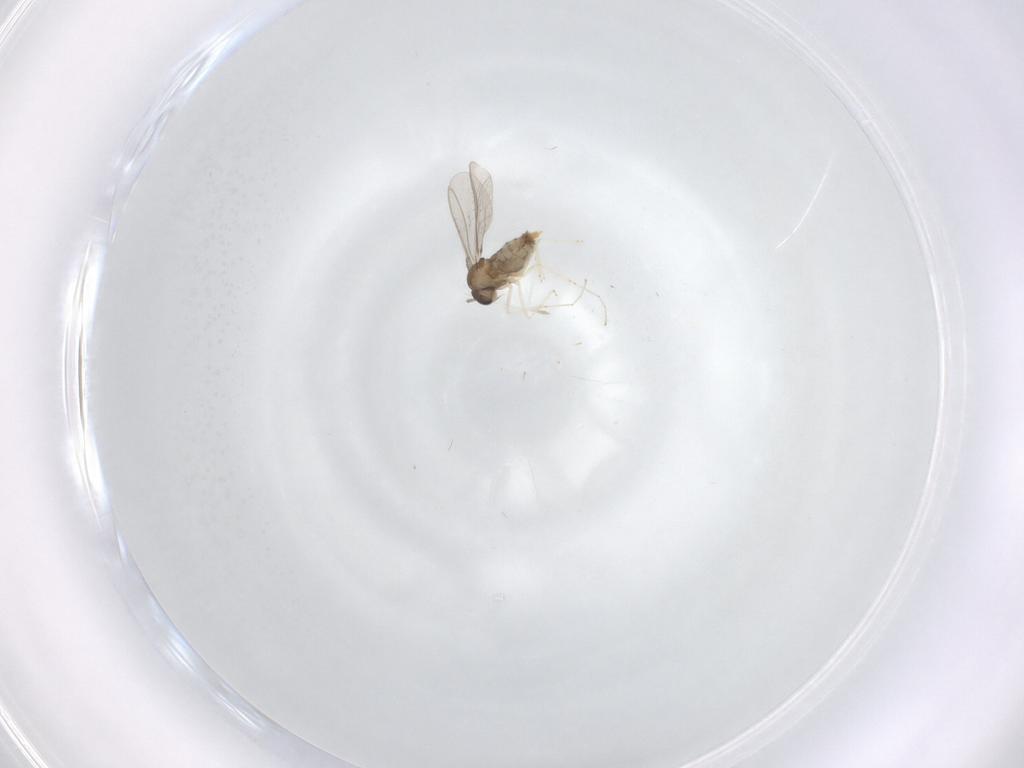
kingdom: Animalia
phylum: Arthropoda
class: Insecta
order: Diptera
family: Cecidomyiidae
